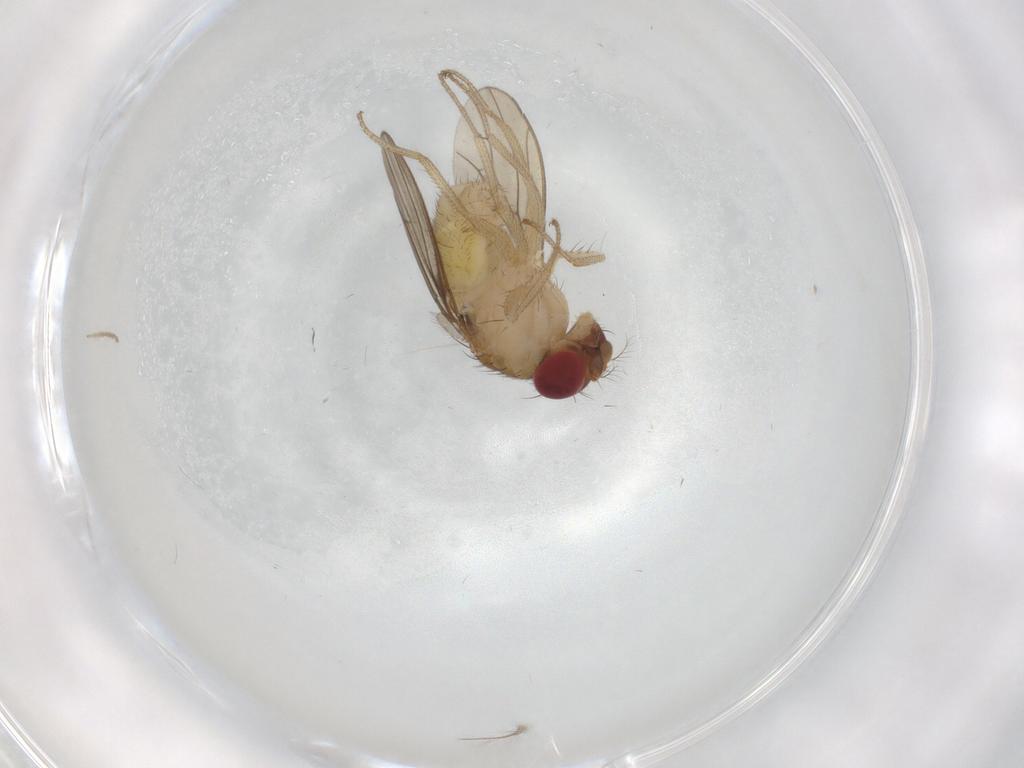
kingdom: Animalia
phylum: Arthropoda
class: Insecta
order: Diptera
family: Drosophilidae
